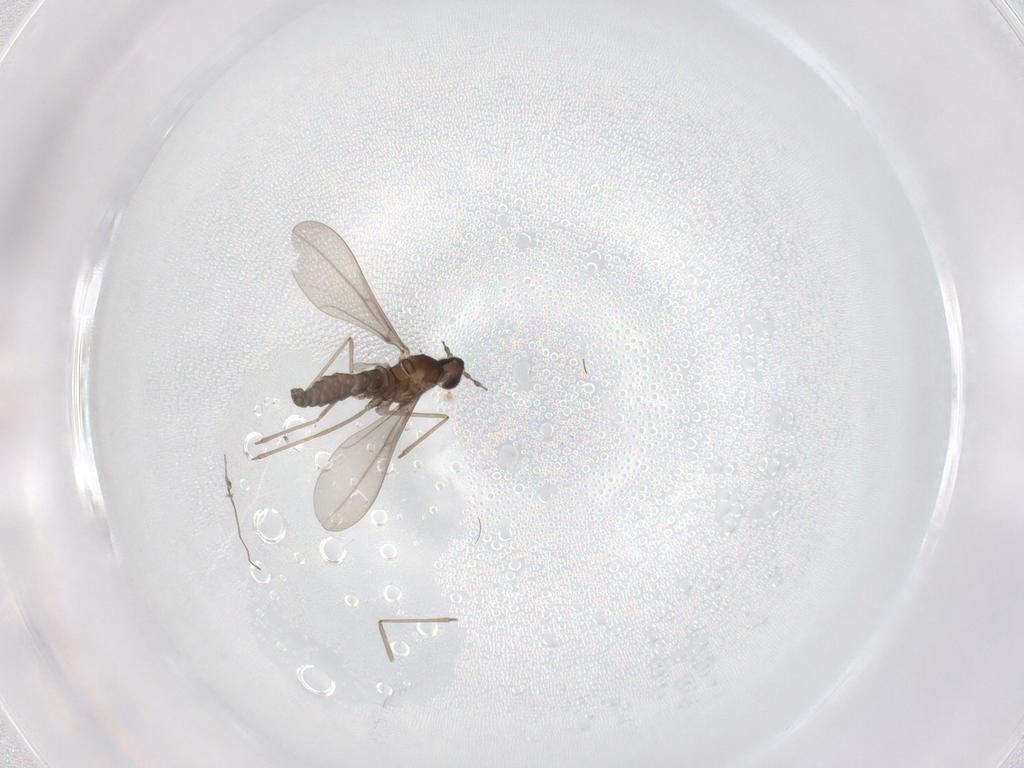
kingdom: Animalia
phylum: Arthropoda
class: Insecta
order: Diptera
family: Cecidomyiidae
